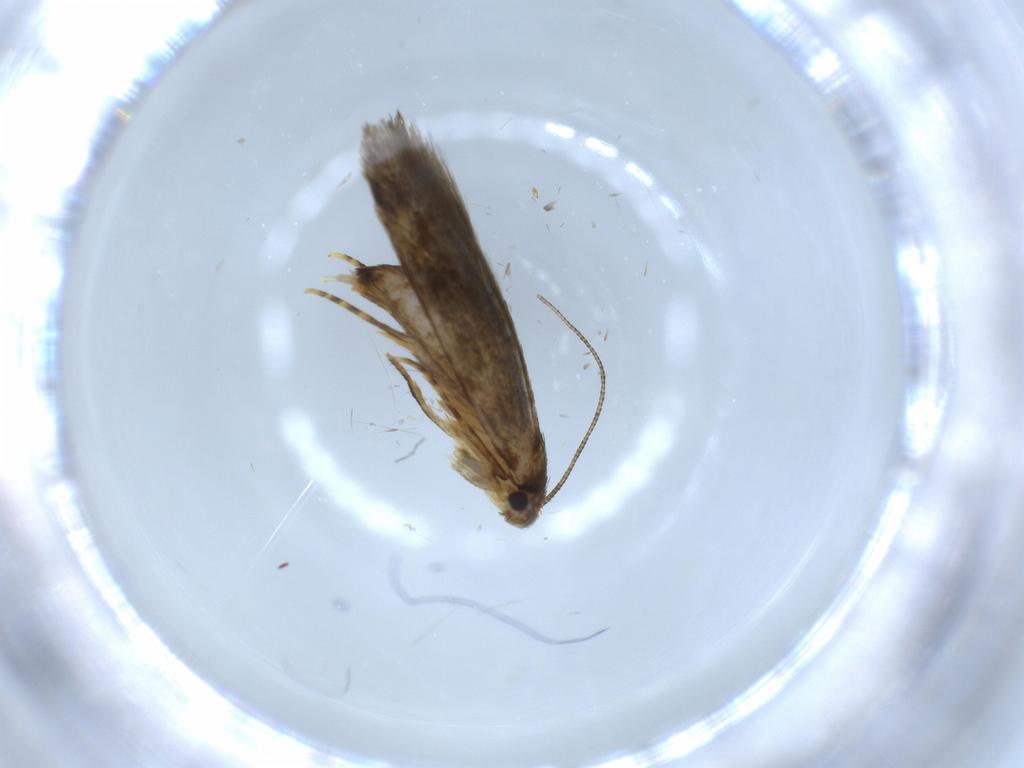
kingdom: Animalia
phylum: Arthropoda
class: Insecta
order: Lepidoptera
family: Tineidae
